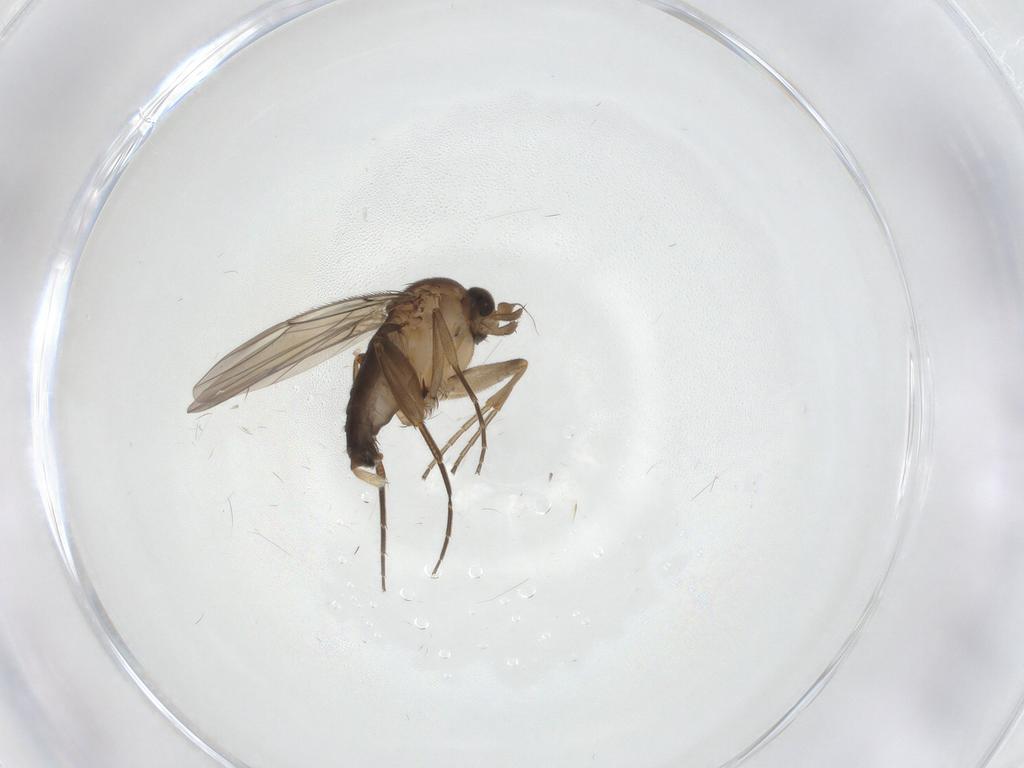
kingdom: Animalia
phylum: Arthropoda
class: Insecta
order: Diptera
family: Phoridae
